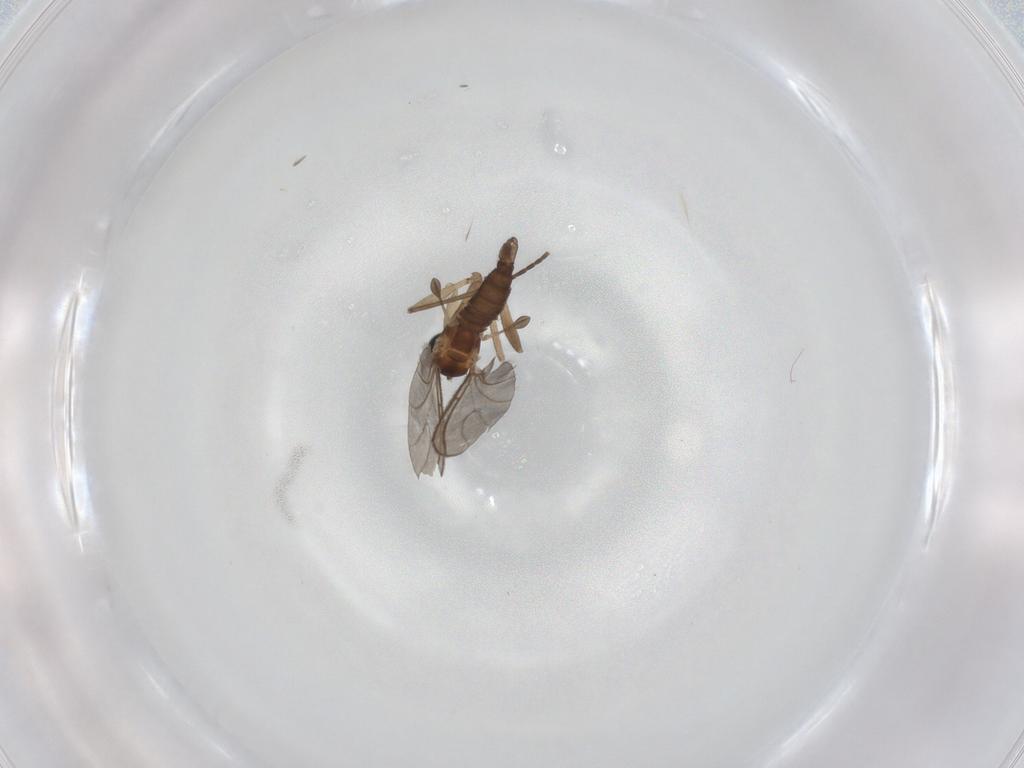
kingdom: Animalia
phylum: Arthropoda
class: Insecta
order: Diptera
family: Sciaridae
